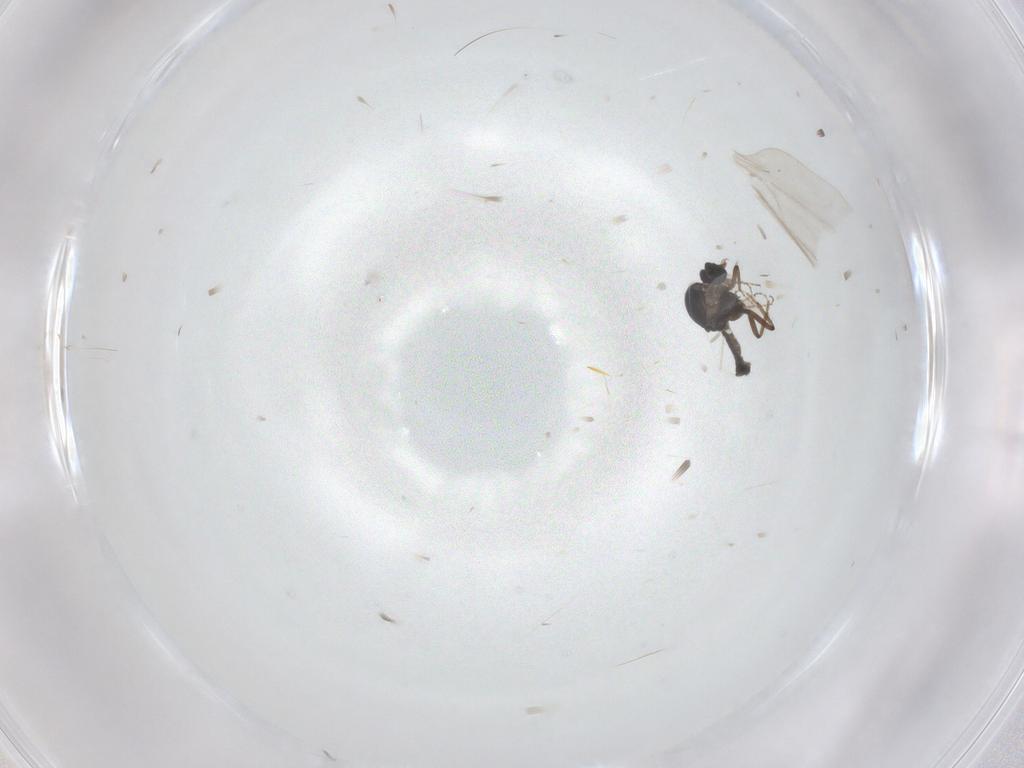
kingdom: Animalia
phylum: Arthropoda
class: Insecta
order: Diptera
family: Ceratopogonidae
